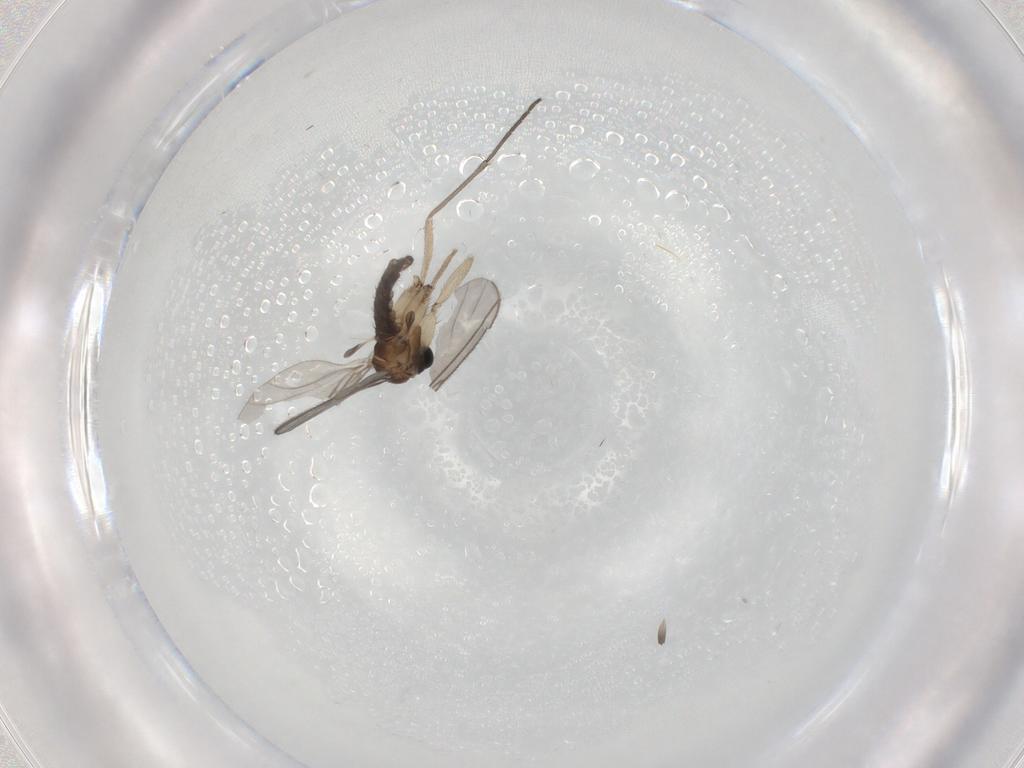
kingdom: Animalia
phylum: Arthropoda
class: Insecta
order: Diptera
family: Sciaridae
